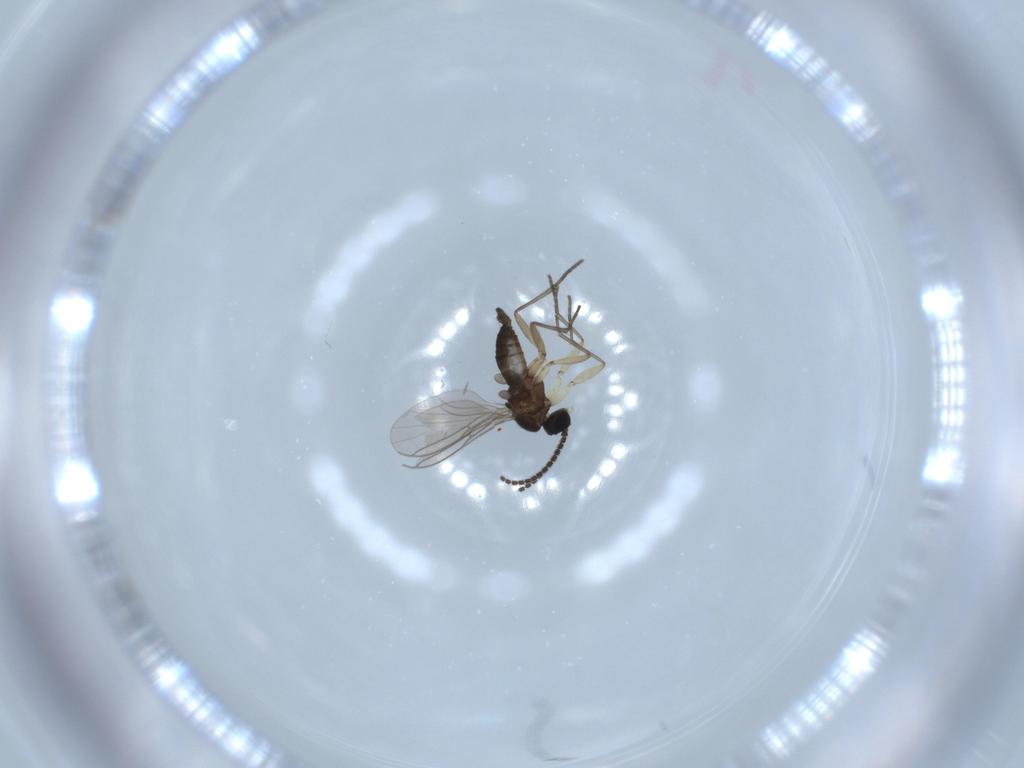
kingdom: Animalia
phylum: Arthropoda
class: Insecta
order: Diptera
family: Sciaridae
